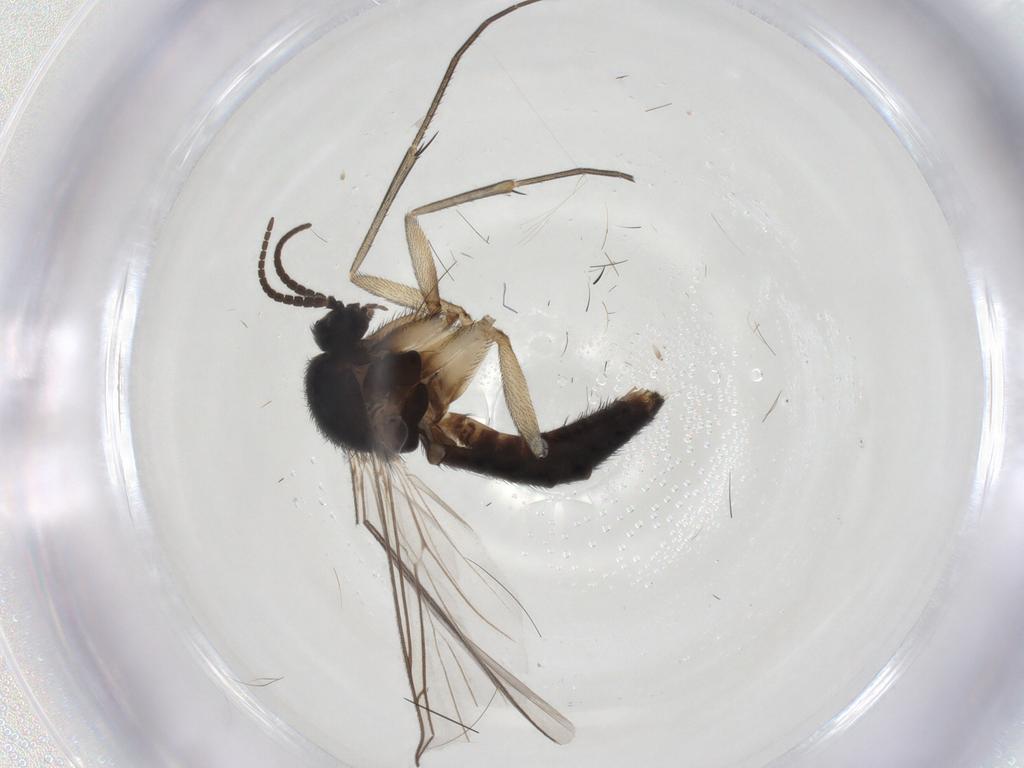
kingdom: Animalia
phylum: Arthropoda
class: Insecta
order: Diptera
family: Keroplatidae
